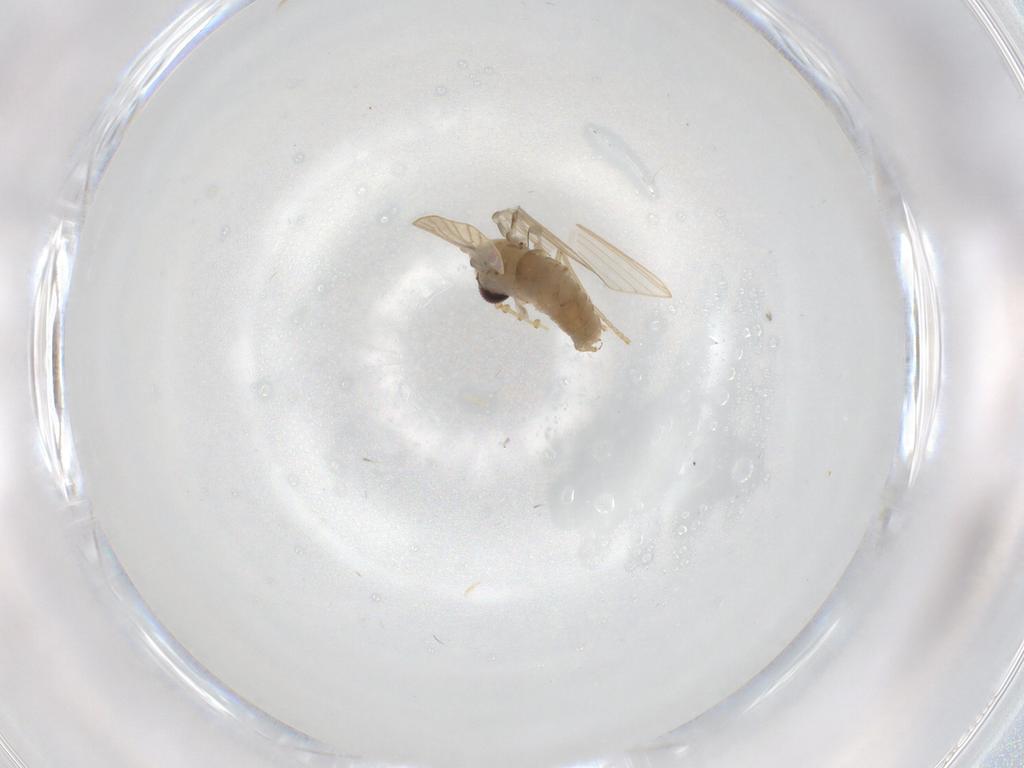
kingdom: Animalia
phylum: Arthropoda
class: Insecta
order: Diptera
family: Psychodidae
